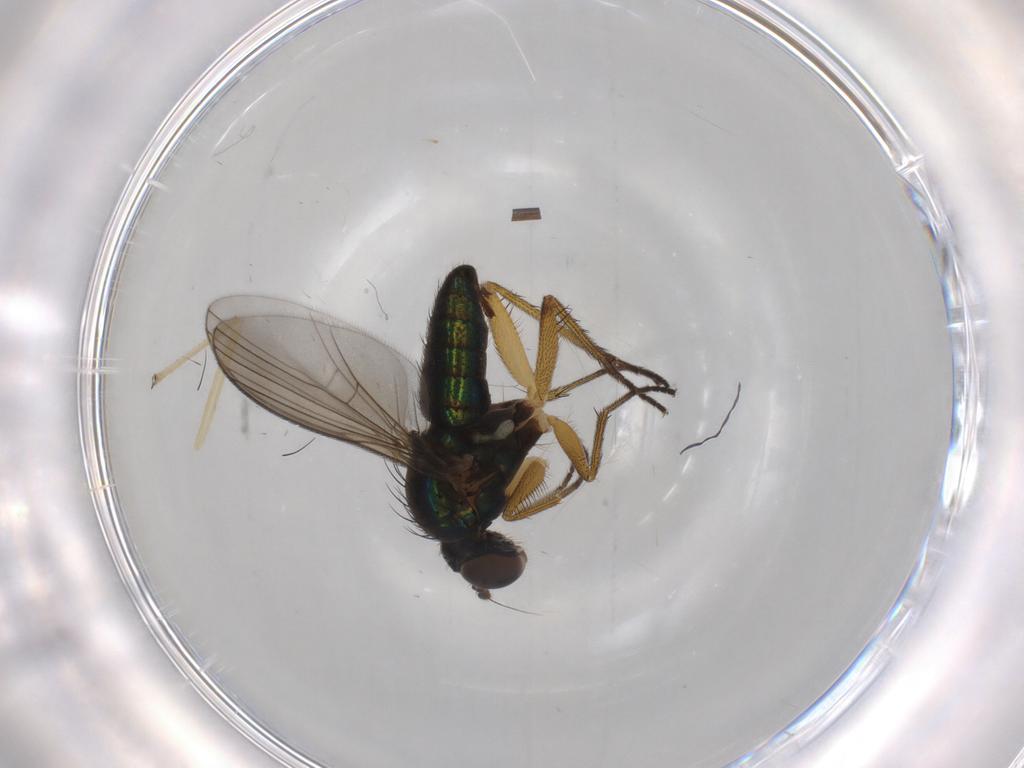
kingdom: Animalia
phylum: Arthropoda
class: Insecta
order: Diptera
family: Dolichopodidae
